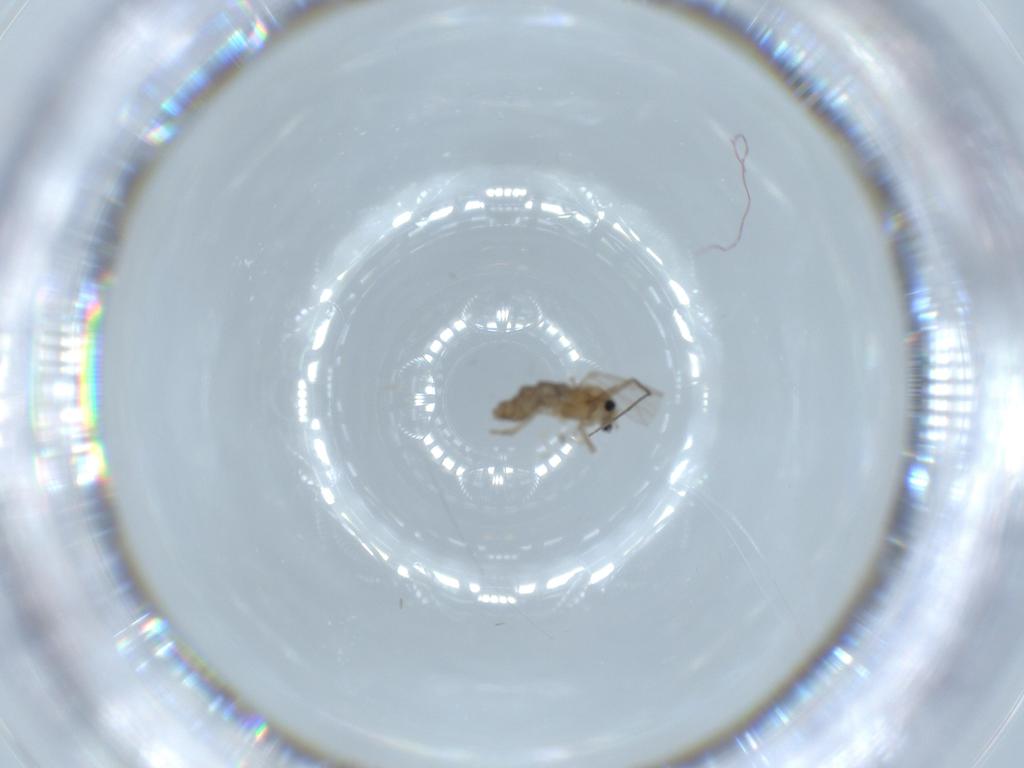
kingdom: Animalia
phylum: Arthropoda
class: Insecta
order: Diptera
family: Chironomidae
